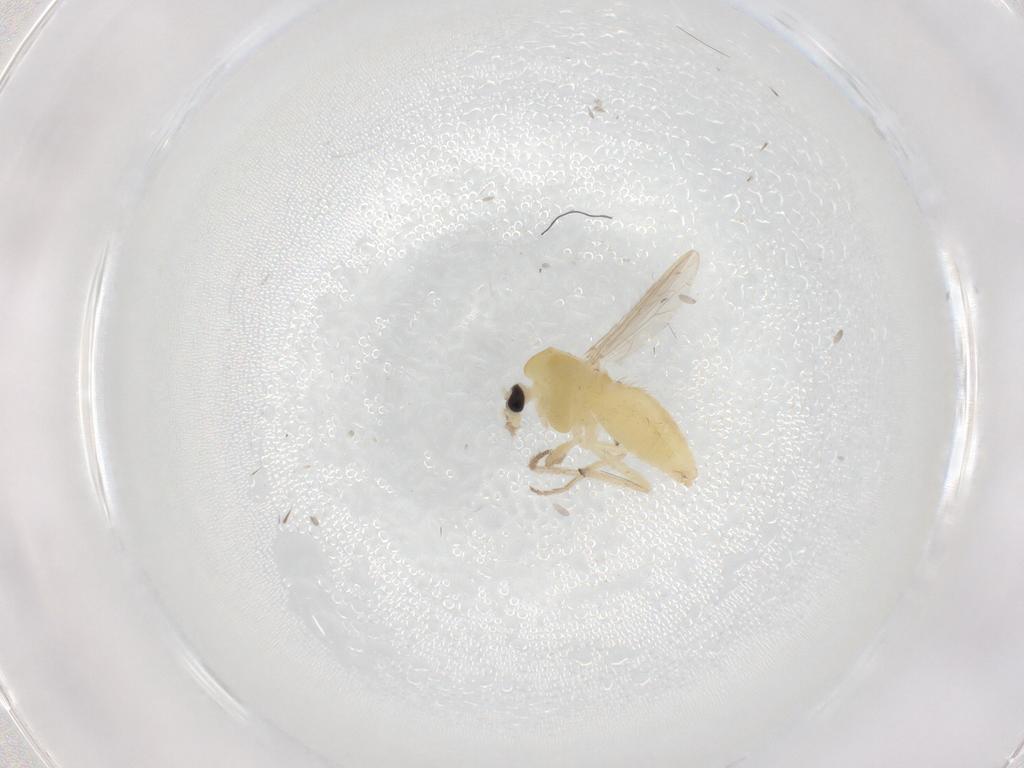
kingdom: Animalia
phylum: Arthropoda
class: Insecta
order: Diptera
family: Chironomidae
